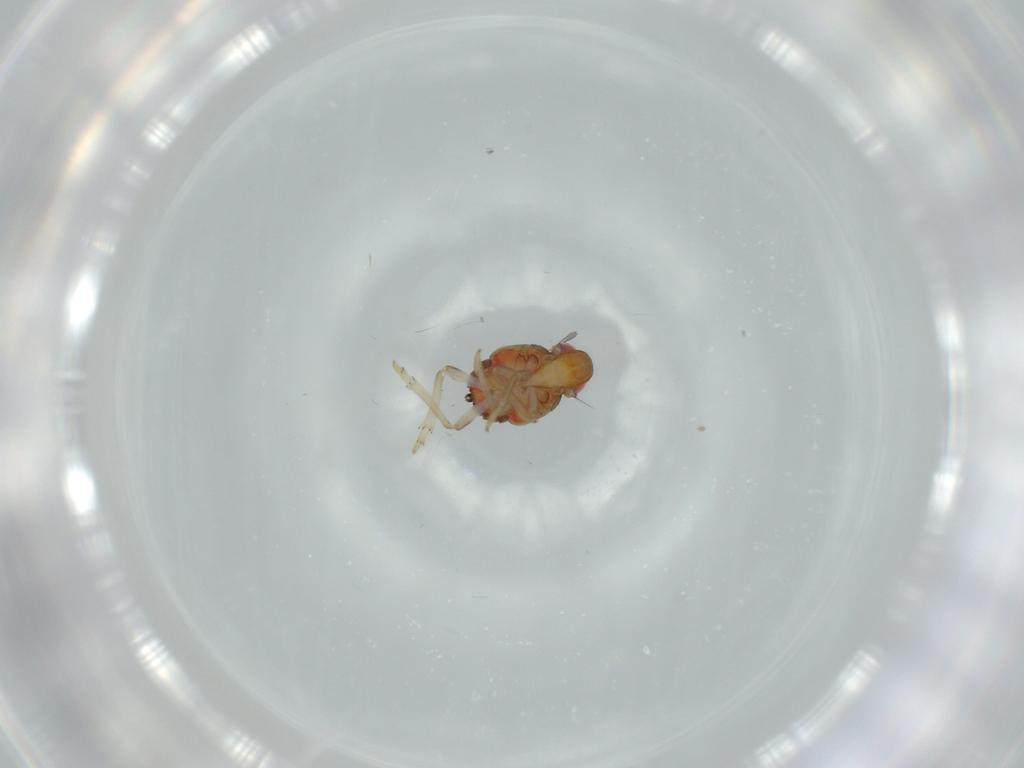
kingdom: Animalia
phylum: Arthropoda
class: Insecta
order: Hemiptera
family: Issidae
